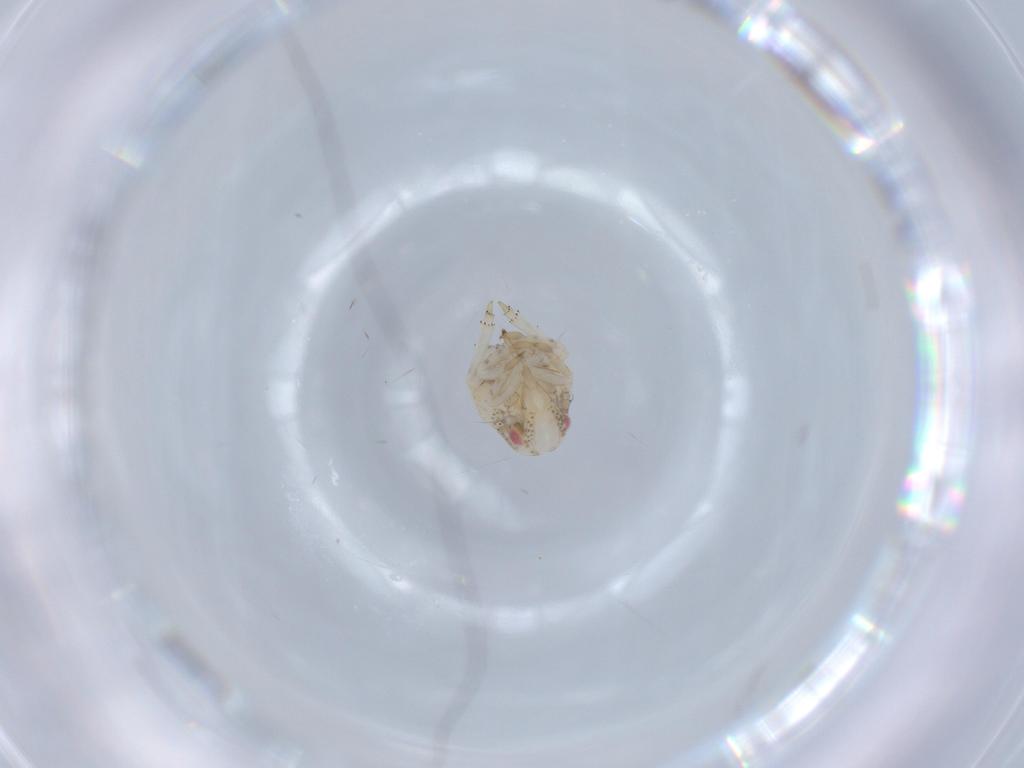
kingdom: Animalia
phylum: Arthropoda
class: Insecta
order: Hemiptera
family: Acanaloniidae
